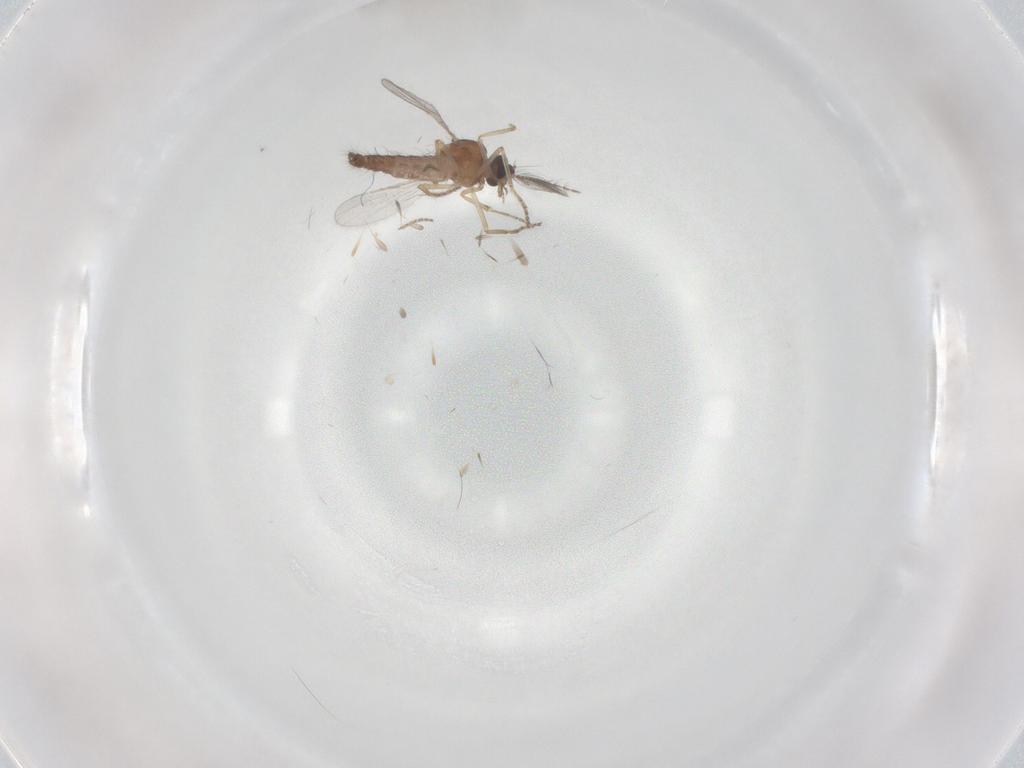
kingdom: Animalia
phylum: Arthropoda
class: Insecta
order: Diptera
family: Ceratopogonidae
